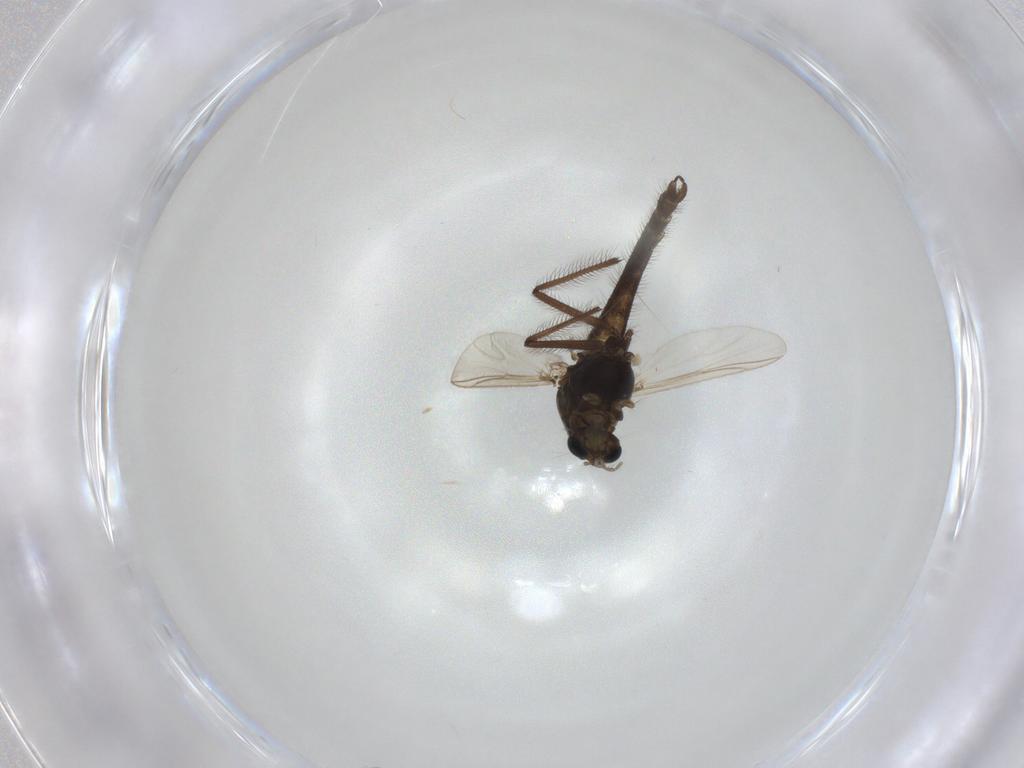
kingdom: Animalia
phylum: Arthropoda
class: Insecta
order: Diptera
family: Chironomidae
